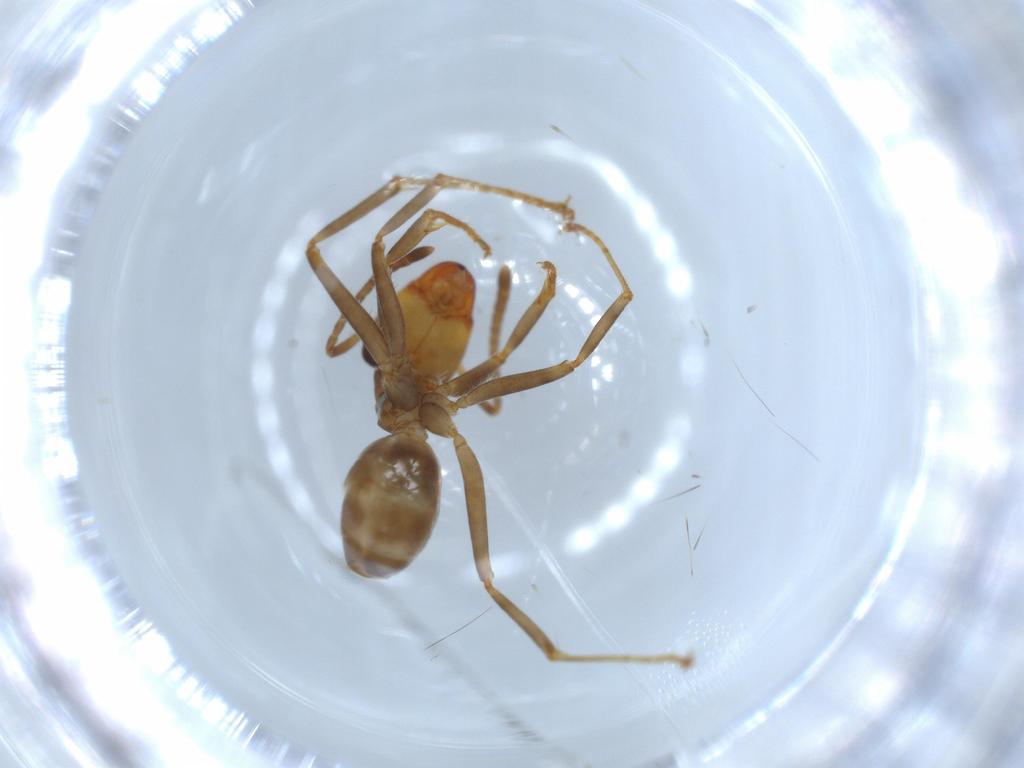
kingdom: Animalia
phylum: Arthropoda
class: Insecta
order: Hymenoptera
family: Formicidae
